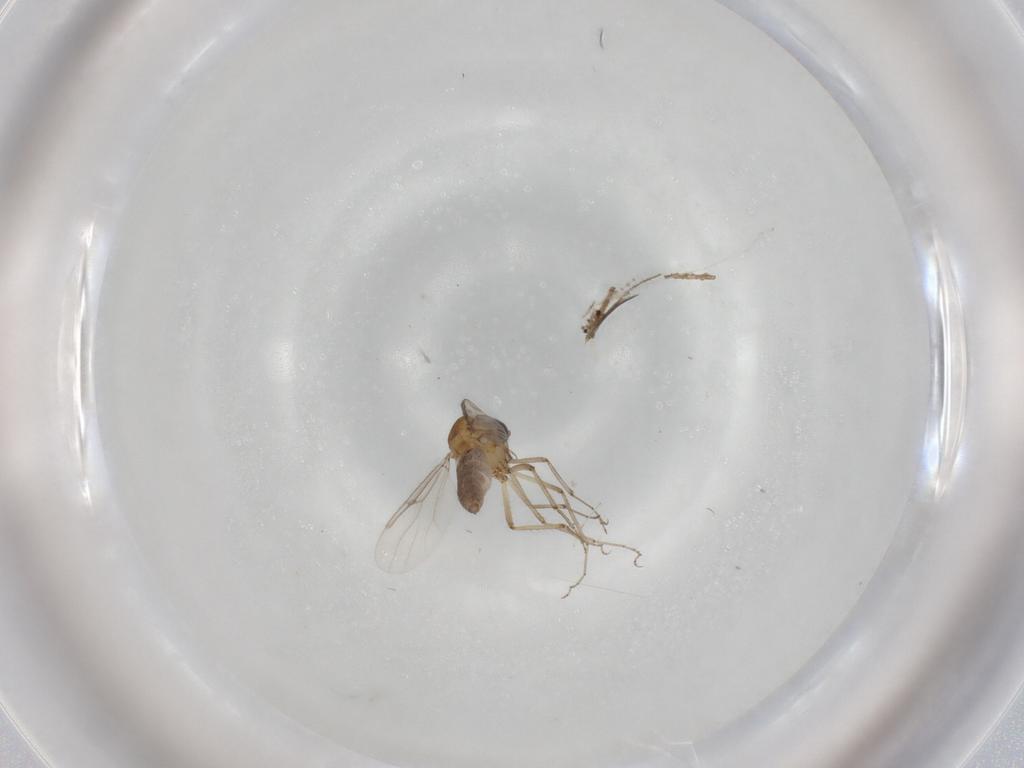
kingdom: Animalia
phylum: Arthropoda
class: Insecta
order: Diptera
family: Ceratopogonidae
